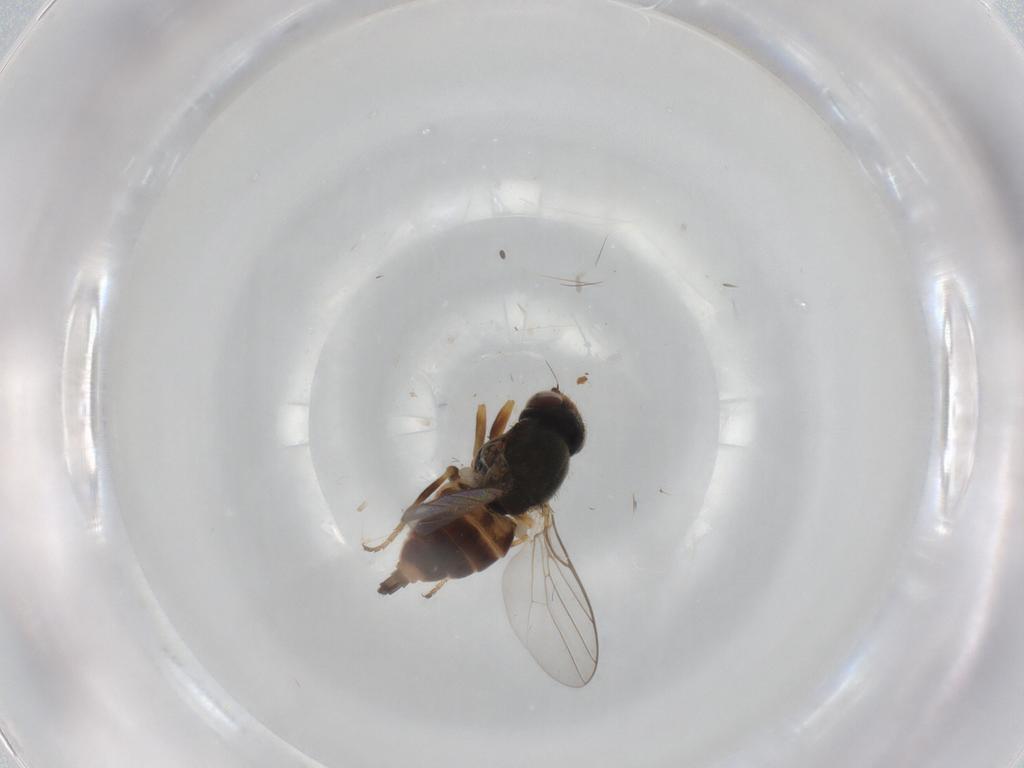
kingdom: Animalia
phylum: Arthropoda
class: Insecta
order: Diptera
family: Chloropidae
